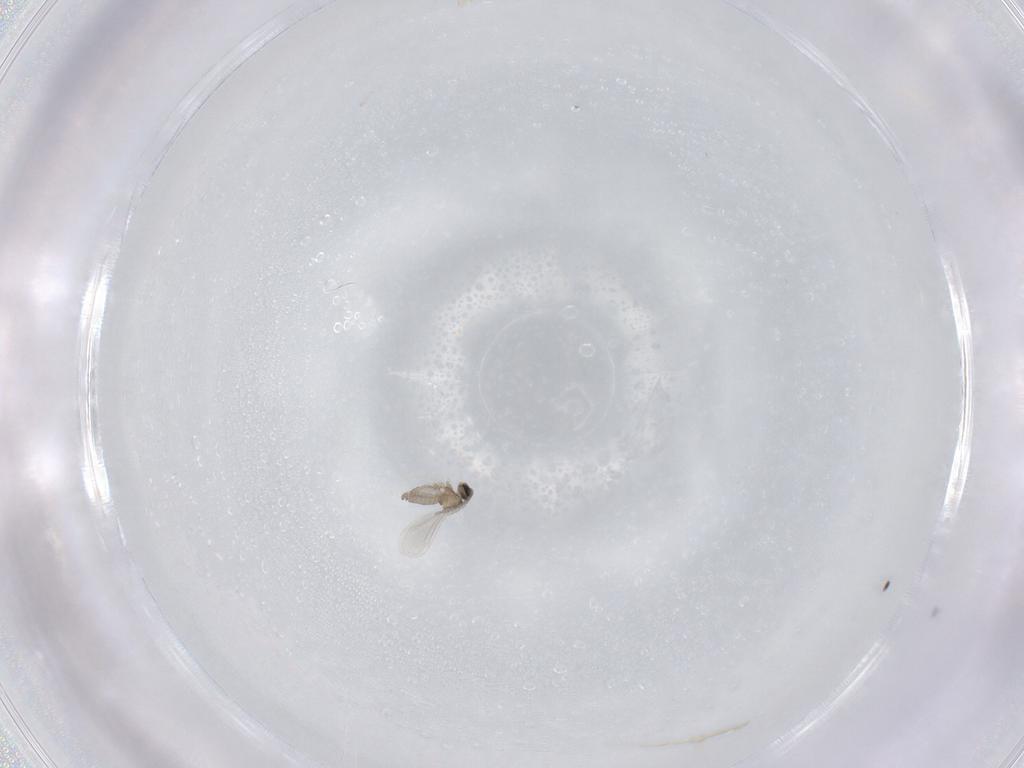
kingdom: Animalia
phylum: Arthropoda
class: Insecta
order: Diptera
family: Cecidomyiidae
